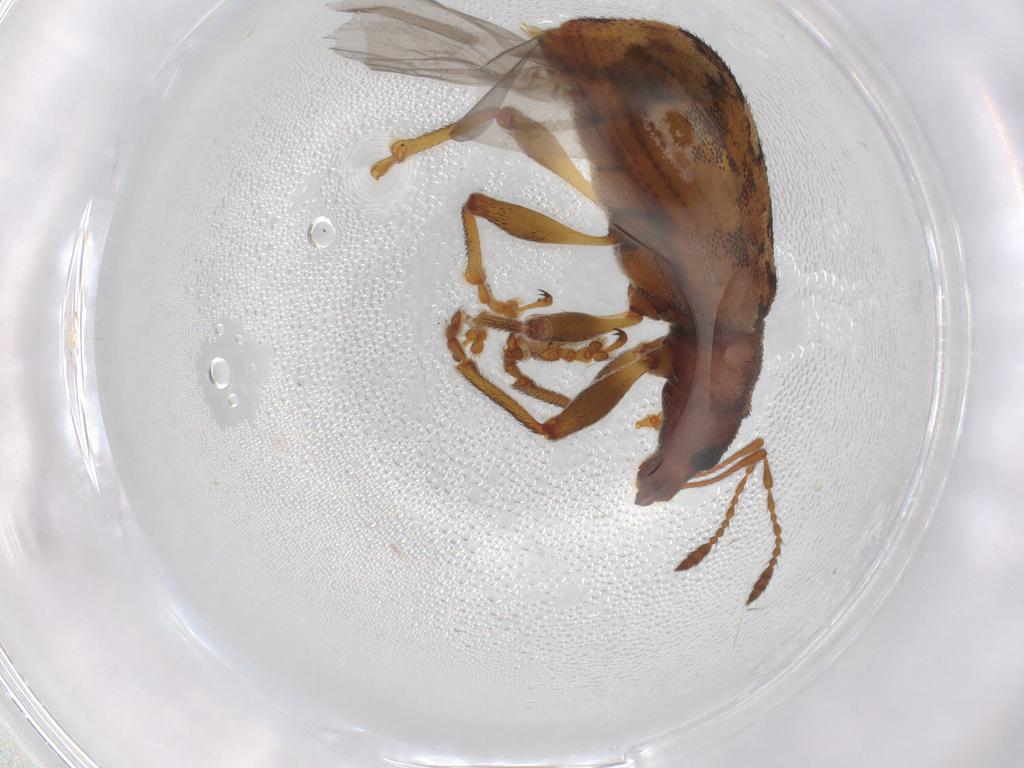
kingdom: Animalia
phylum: Arthropoda
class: Insecta
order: Coleoptera
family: Curculionidae
